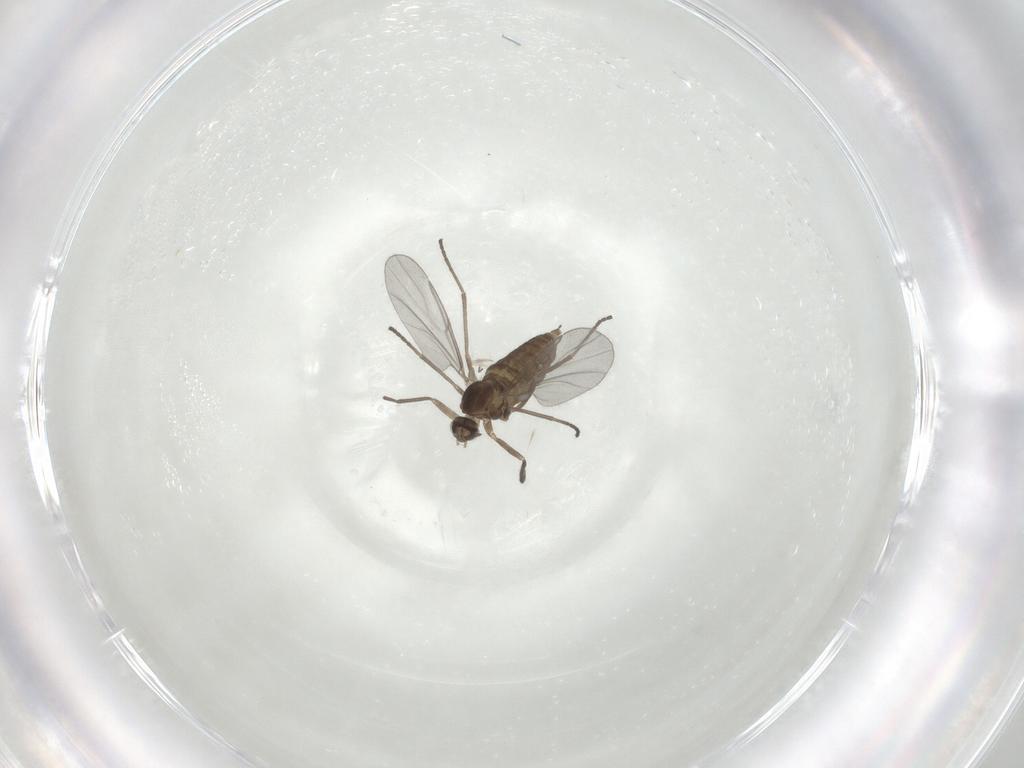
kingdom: Animalia
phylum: Arthropoda
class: Insecta
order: Diptera
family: Cecidomyiidae
